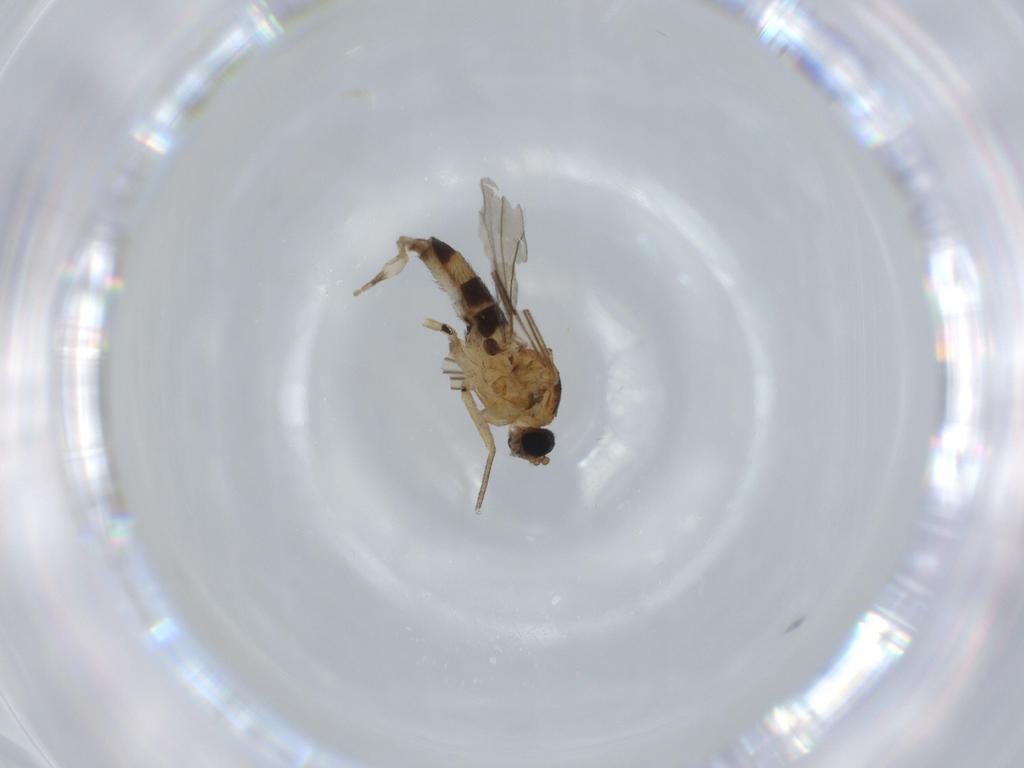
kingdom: Animalia
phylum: Arthropoda
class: Insecta
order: Diptera
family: Sciaridae
